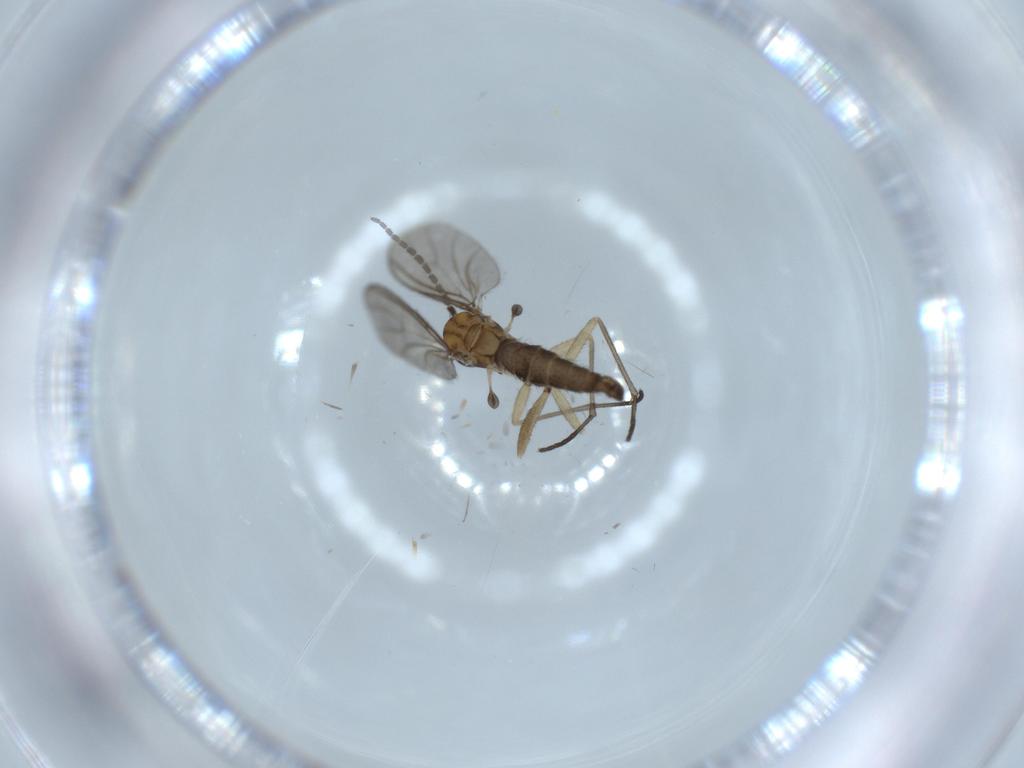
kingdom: Animalia
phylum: Arthropoda
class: Insecta
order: Diptera
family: Sciaridae
